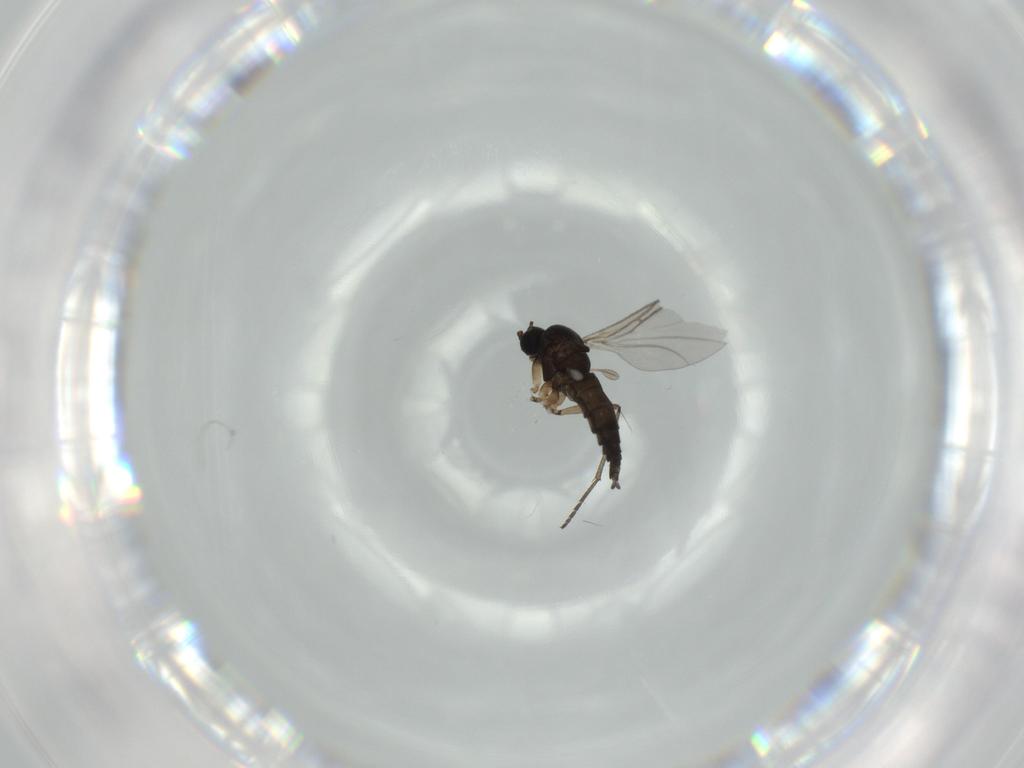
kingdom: Animalia
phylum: Arthropoda
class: Insecta
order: Diptera
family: Sciaridae
